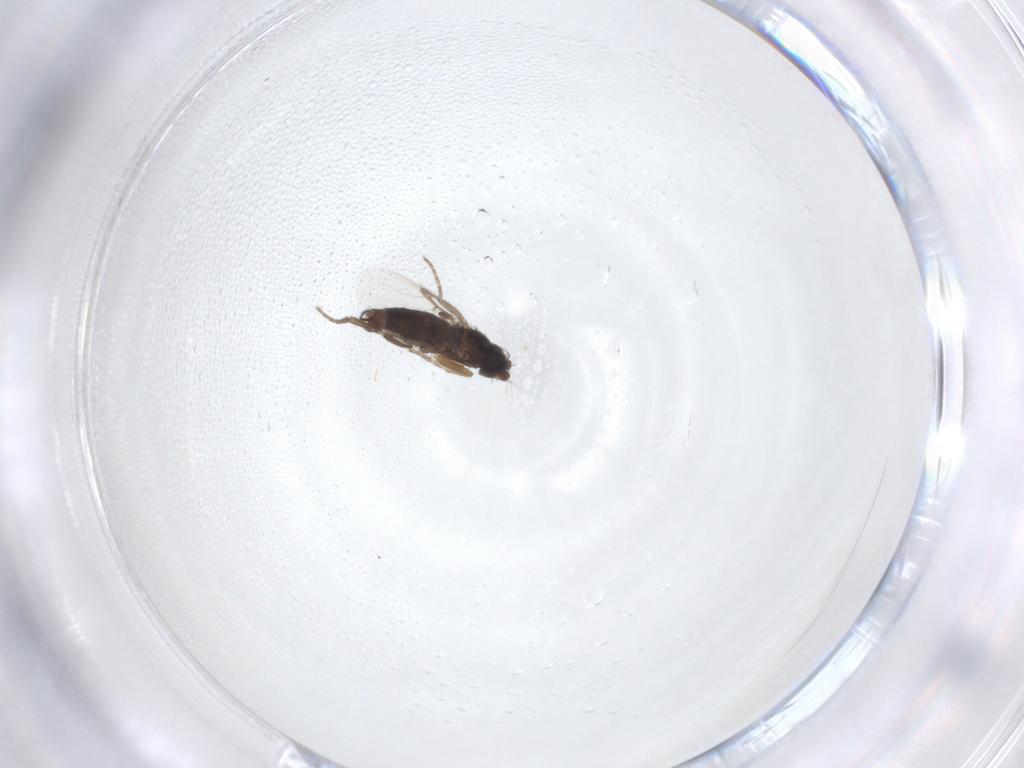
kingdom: Animalia
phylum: Arthropoda
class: Insecta
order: Diptera
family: Phoridae
